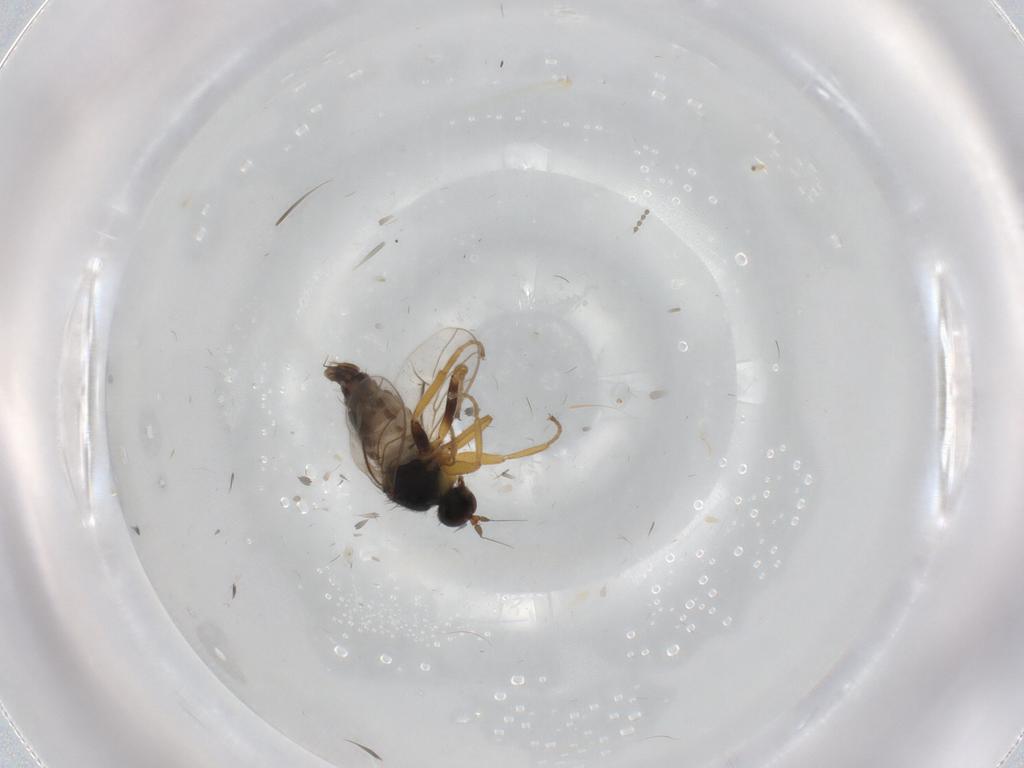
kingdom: Animalia
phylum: Arthropoda
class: Insecta
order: Diptera
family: Hybotidae
